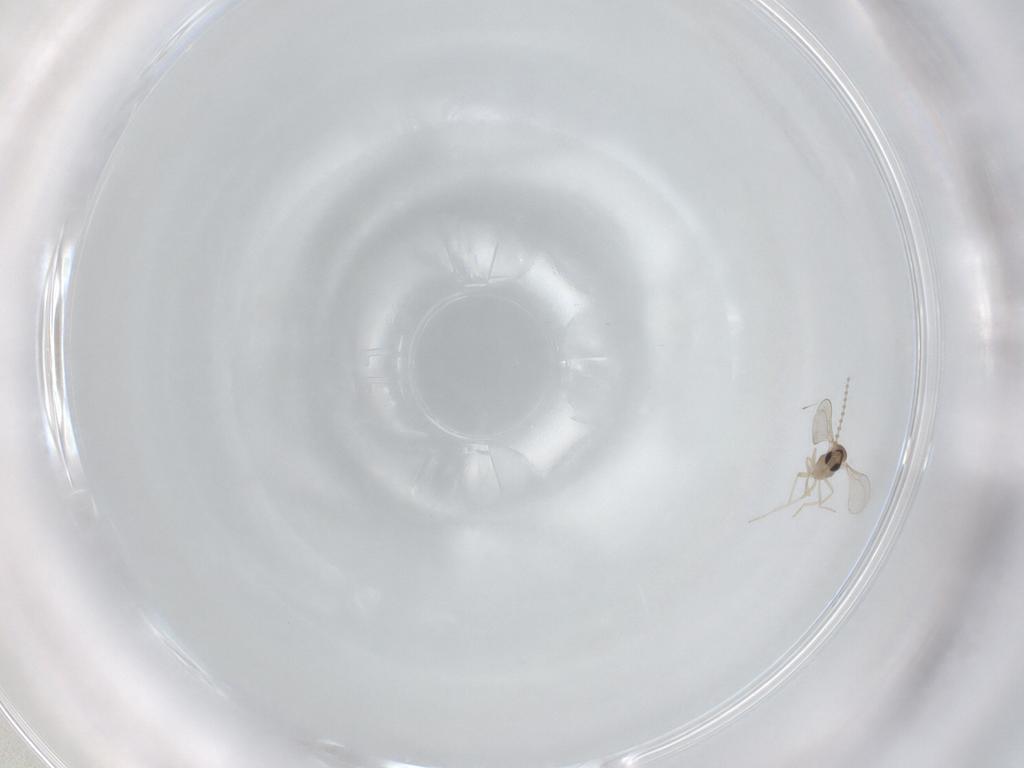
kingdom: Animalia
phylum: Arthropoda
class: Insecta
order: Diptera
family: Cecidomyiidae
